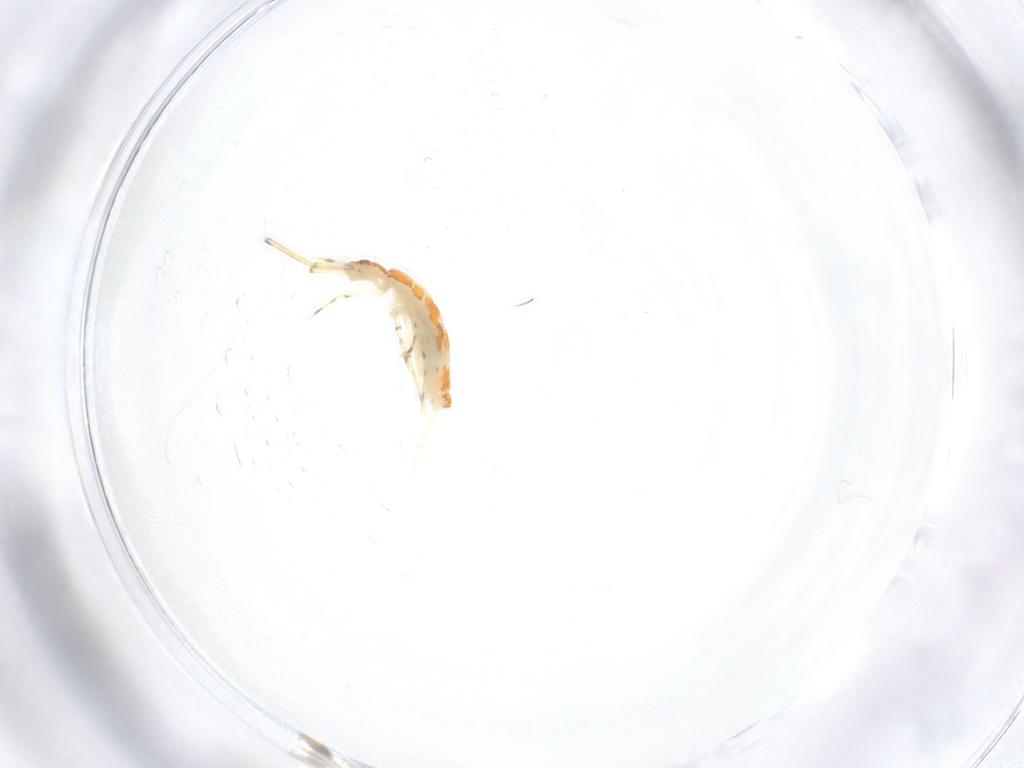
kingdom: Animalia
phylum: Arthropoda
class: Collembola
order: Entomobryomorpha
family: Paronellidae
